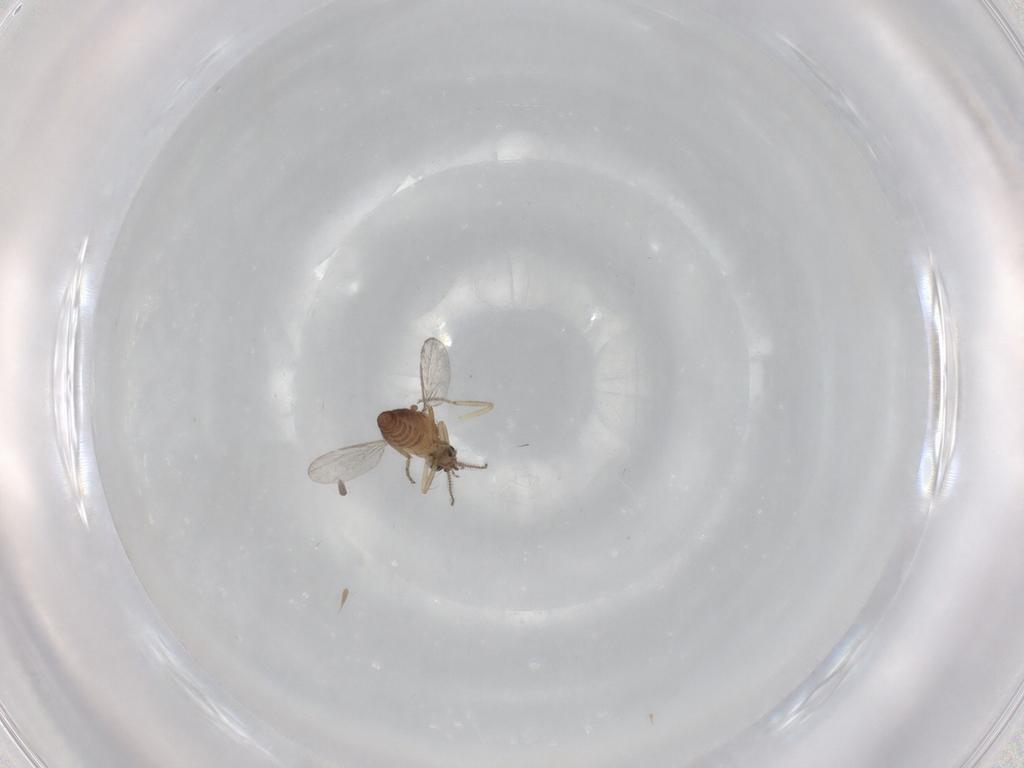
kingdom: Animalia
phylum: Arthropoda
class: Insecta
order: Diptera
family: Ceratopogonidae
